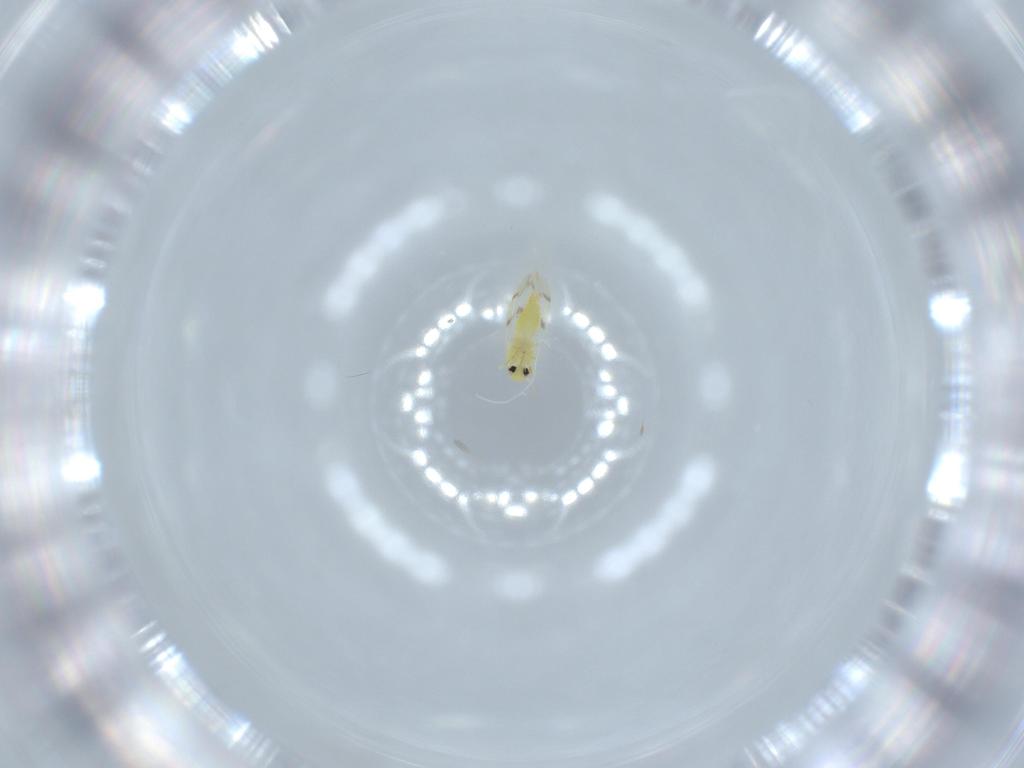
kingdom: Animalia
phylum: Arthropoda
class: Insecta
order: Hemiptera
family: Aleyrodidae
